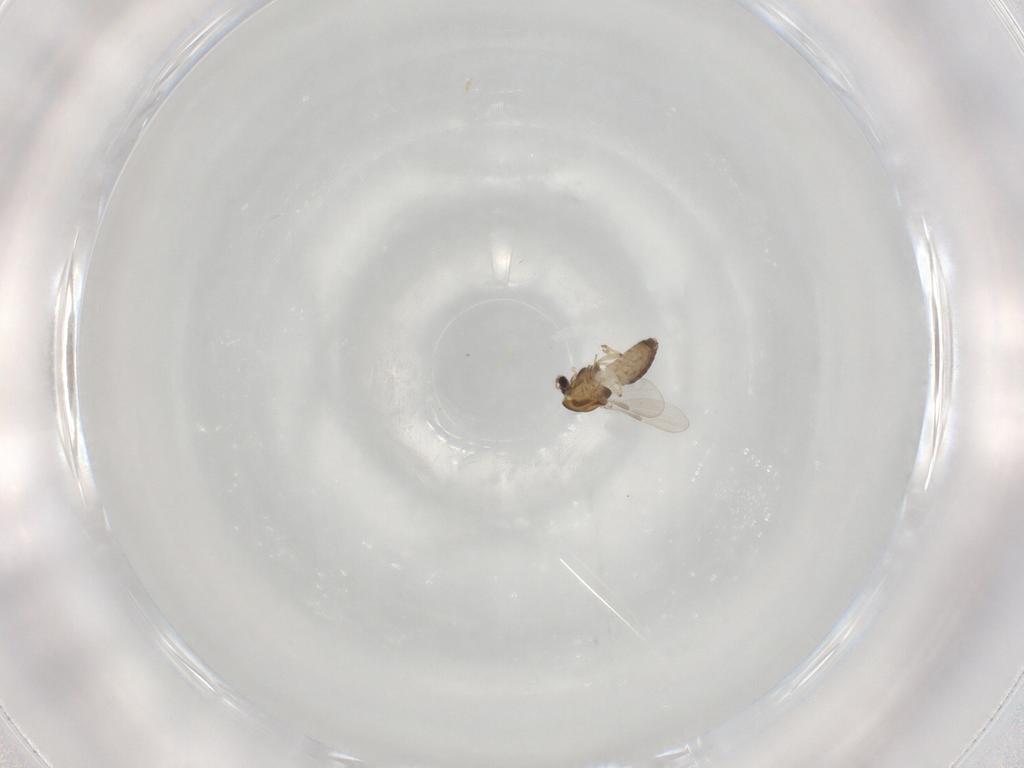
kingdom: Animalia
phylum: Arthropoda
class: Insecta
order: Diptera
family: Chironomidae
